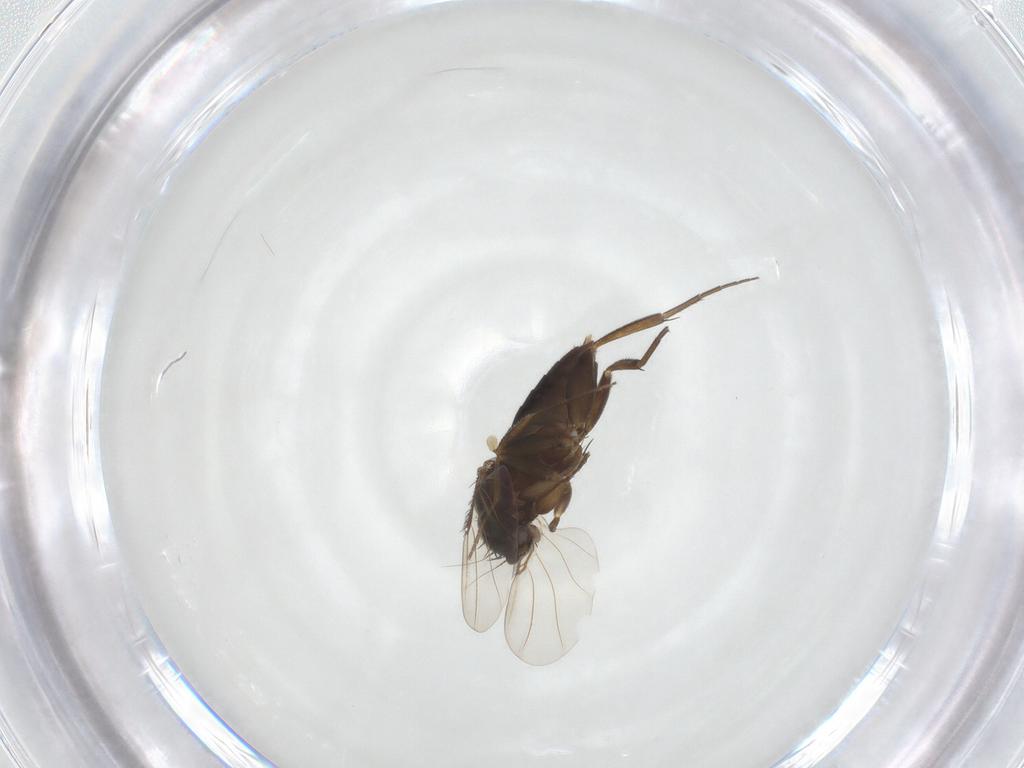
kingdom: Animalia
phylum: Arthropoda
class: Insecta
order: Diptera
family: Phoridae
